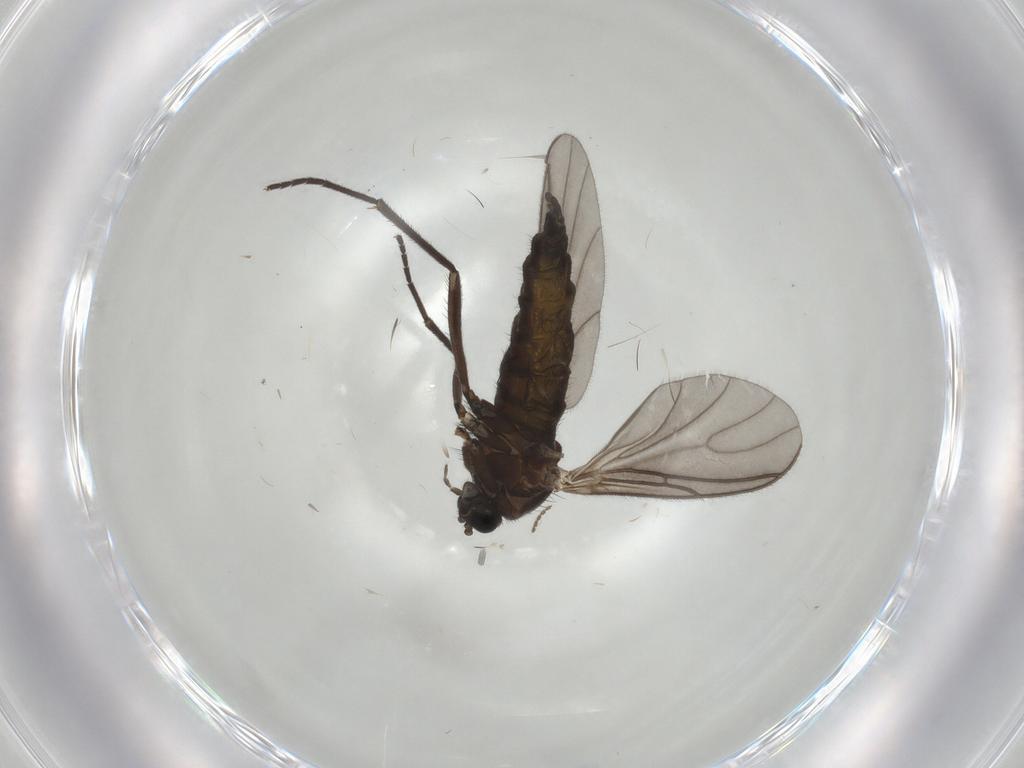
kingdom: Animalia
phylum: Arthropoda
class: Insecta
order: Diptera
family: Sciaridae
